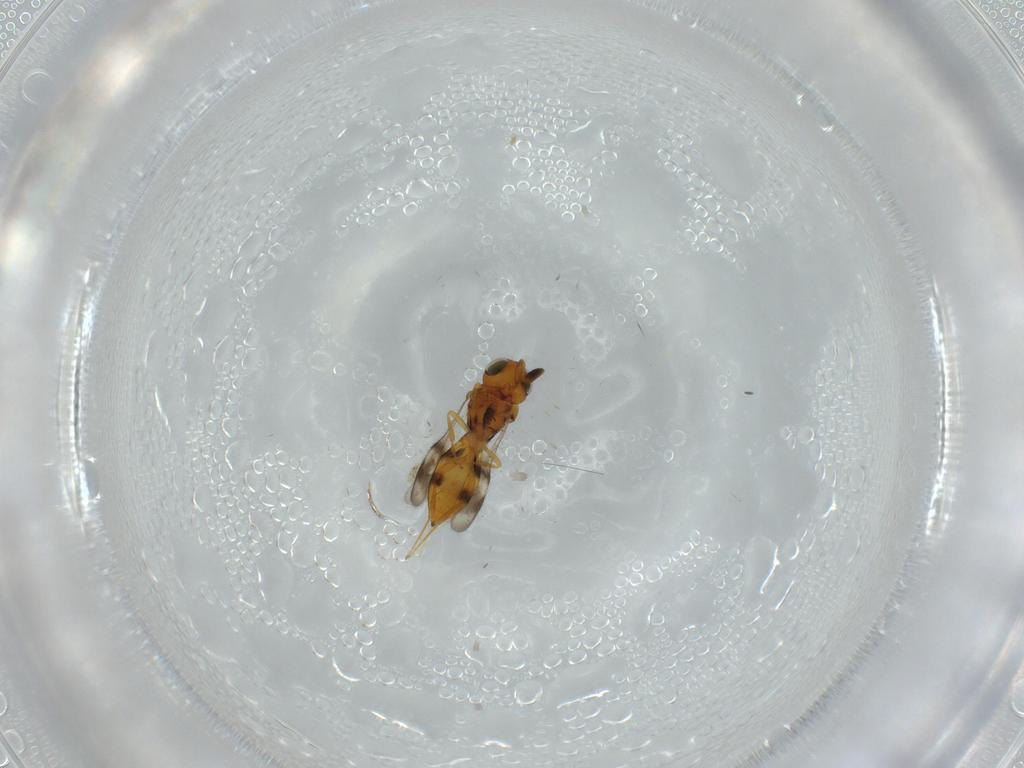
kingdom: Animalia
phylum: Arthropoda
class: Insecta
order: Hymenoptera
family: Scelionidae
